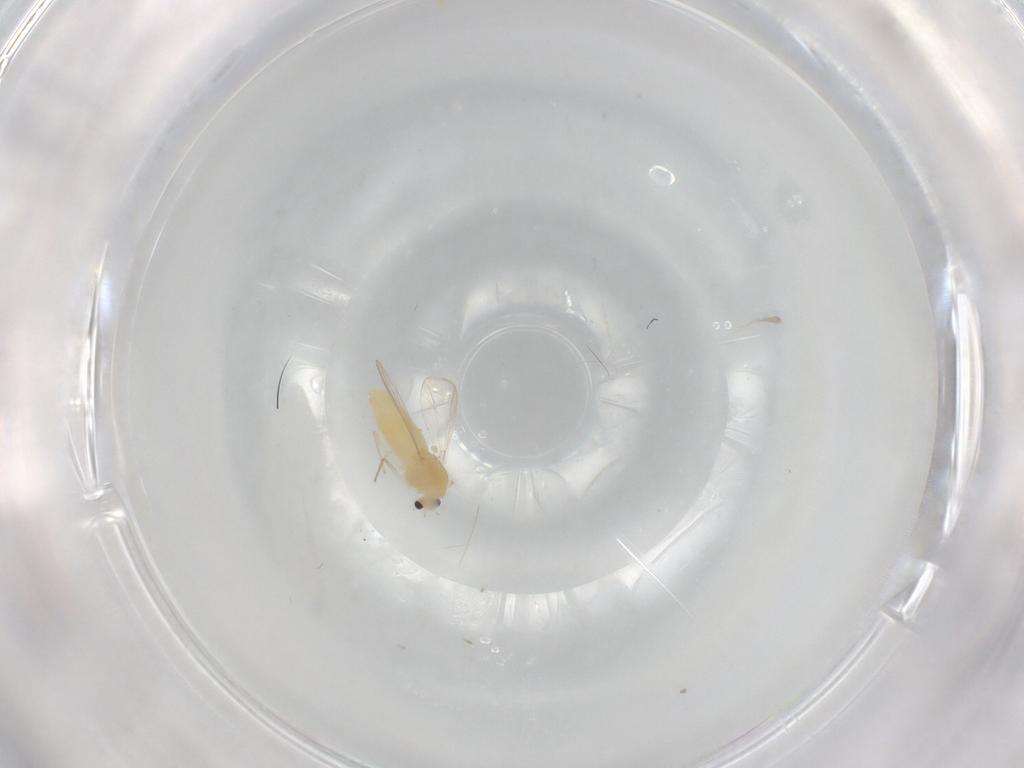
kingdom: Animalia
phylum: Arthropoda
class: Insecta
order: Diptera
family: Chironomidae
